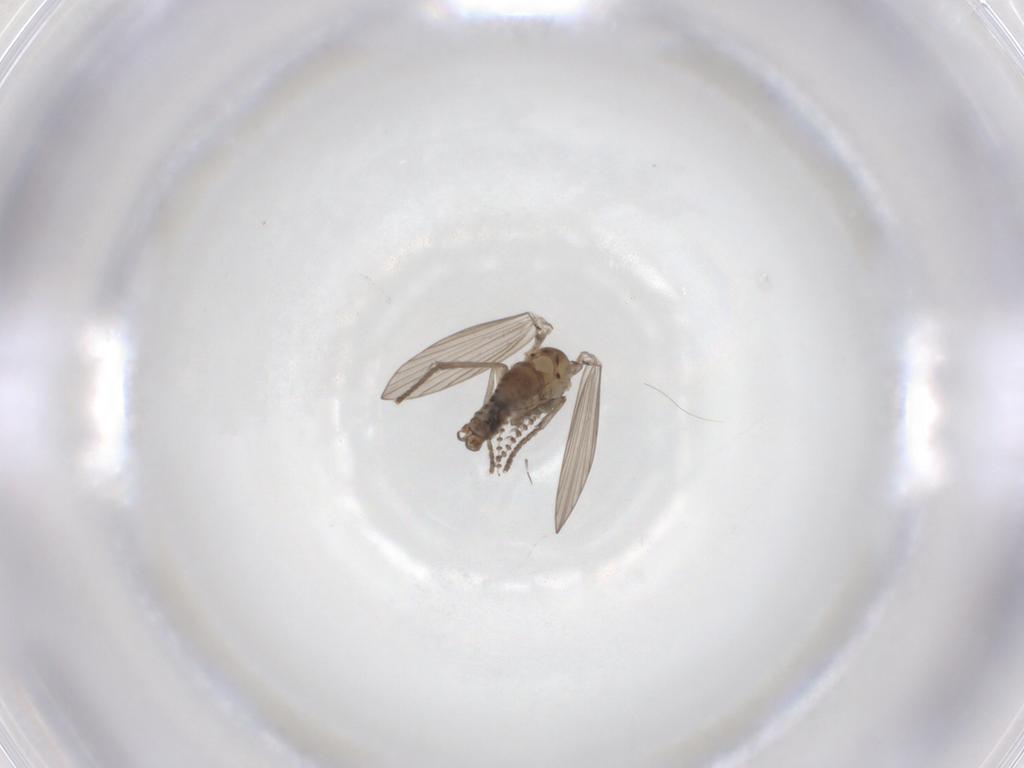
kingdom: Animalia
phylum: Arthropoda
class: Insecta
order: Diptera
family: Psychodidae
